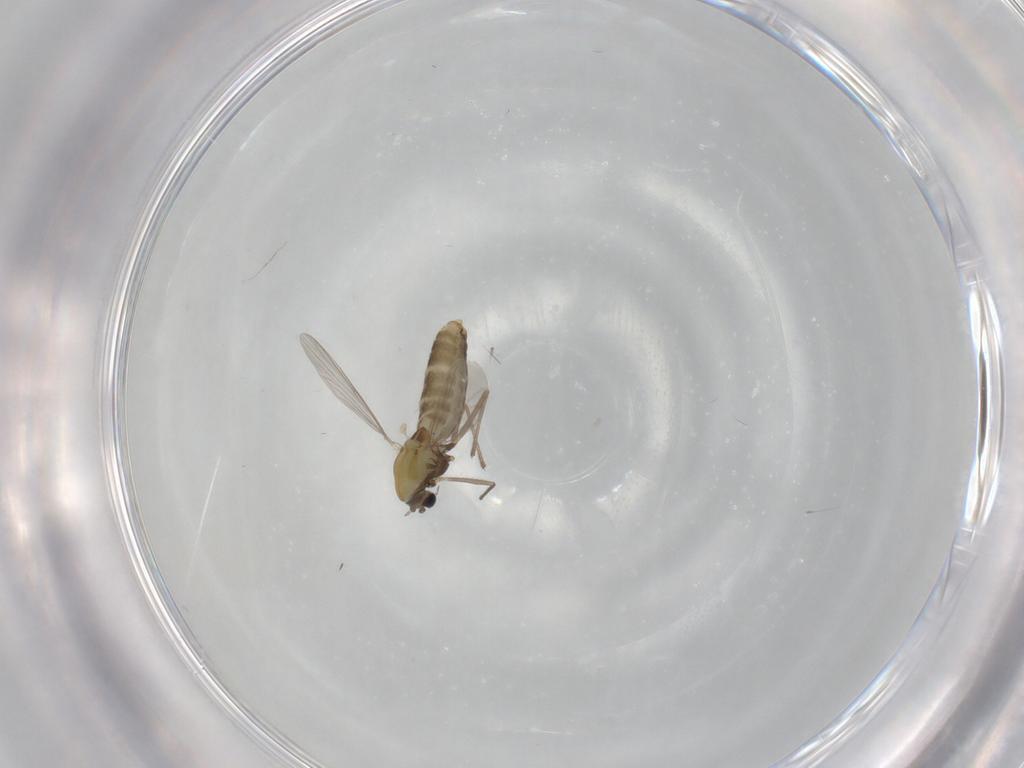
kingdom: Animalia
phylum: Arthropoda
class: Insecta
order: Diptera
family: Chironomidae
